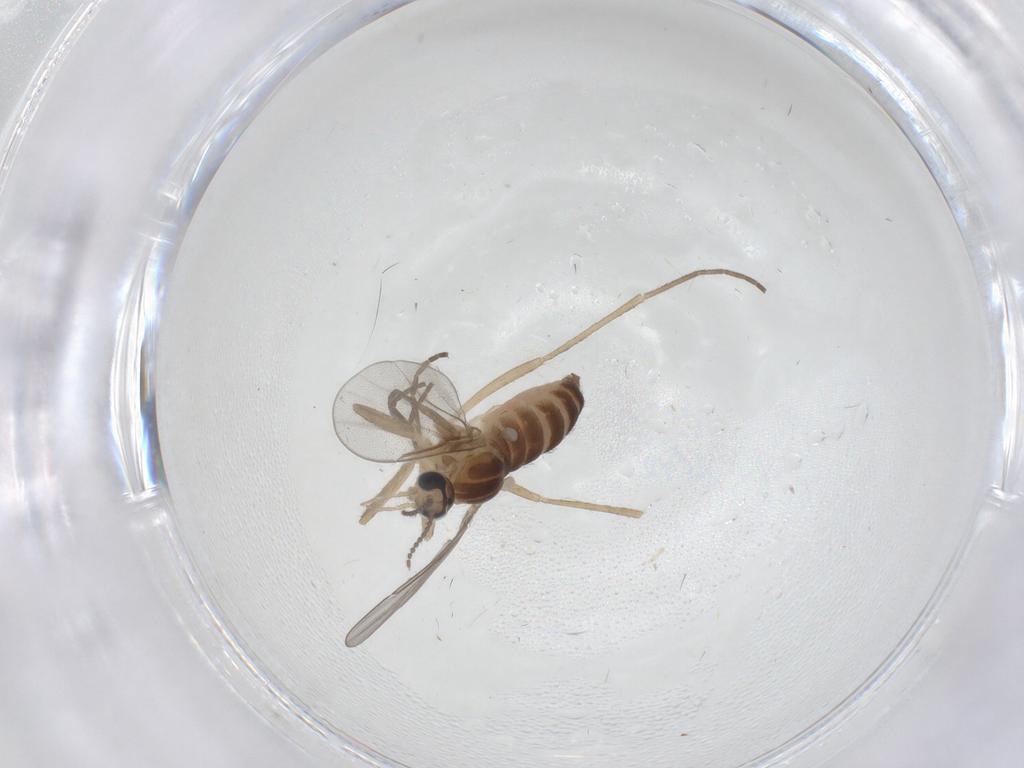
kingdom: Animalia
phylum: Arthropoda
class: Insecta
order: Diptera
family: Cecidomyiidae
